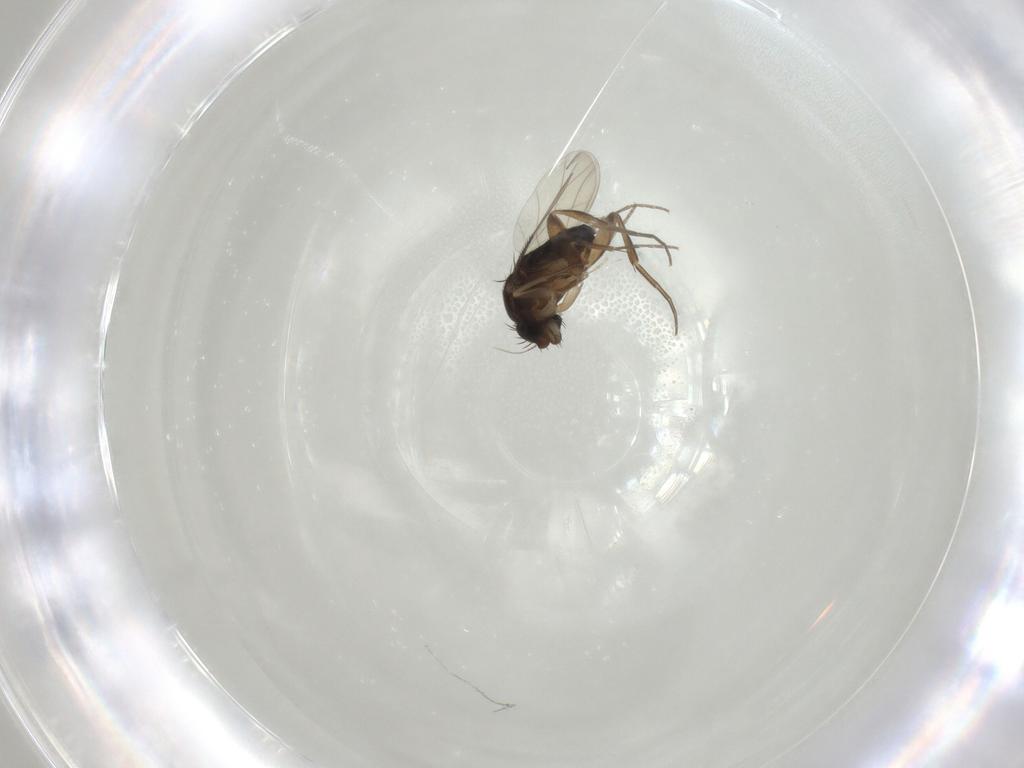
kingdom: Animalia
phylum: Arthropoda
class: Insecta
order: Diptera
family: Phoridae
